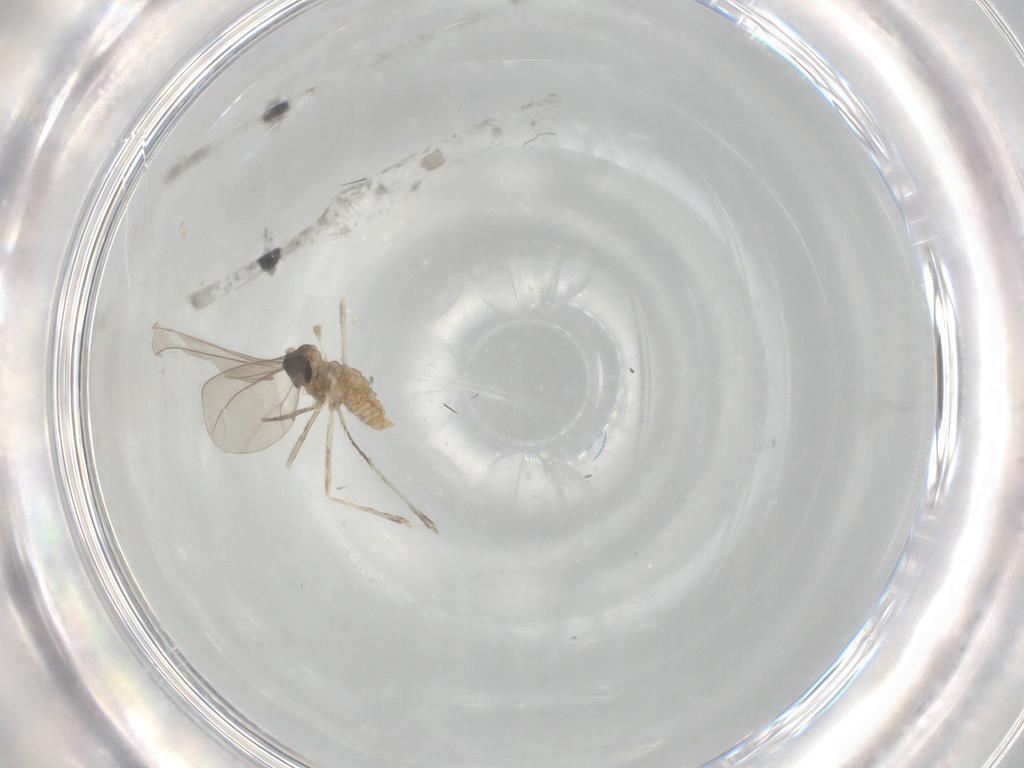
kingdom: Animalia
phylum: Arthropoda
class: Insecta
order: Diptera
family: Cecidomyiidae
